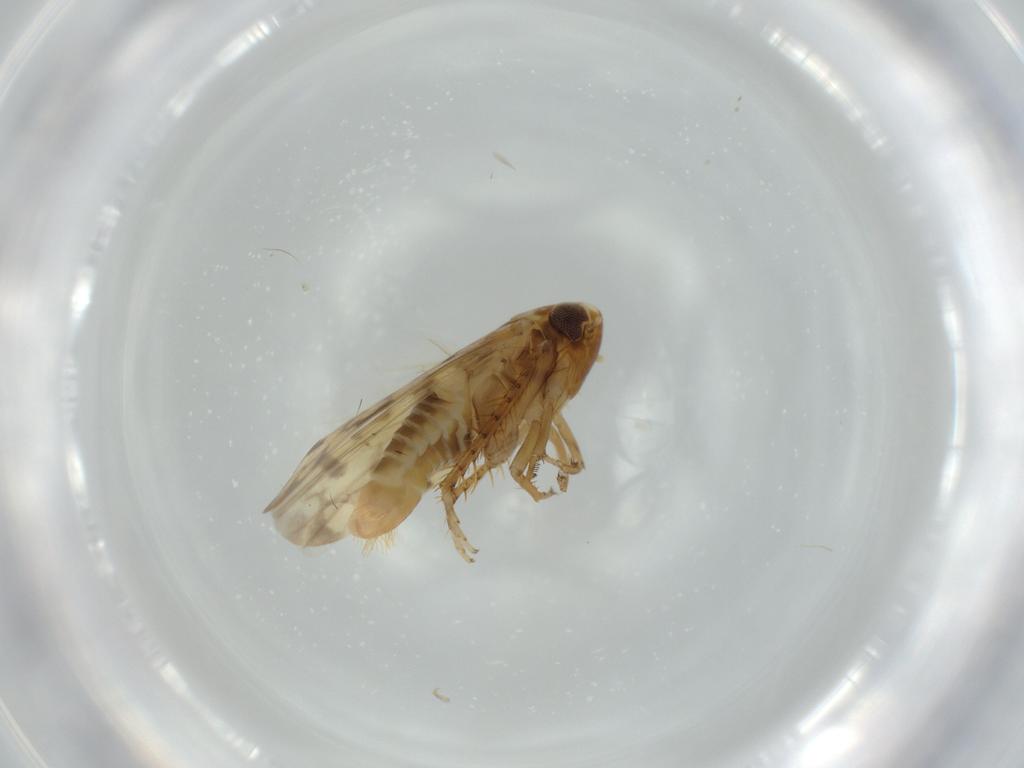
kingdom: Animalia
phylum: Arthropoda
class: Insecta
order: Hemiptera
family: Cicadellidae
